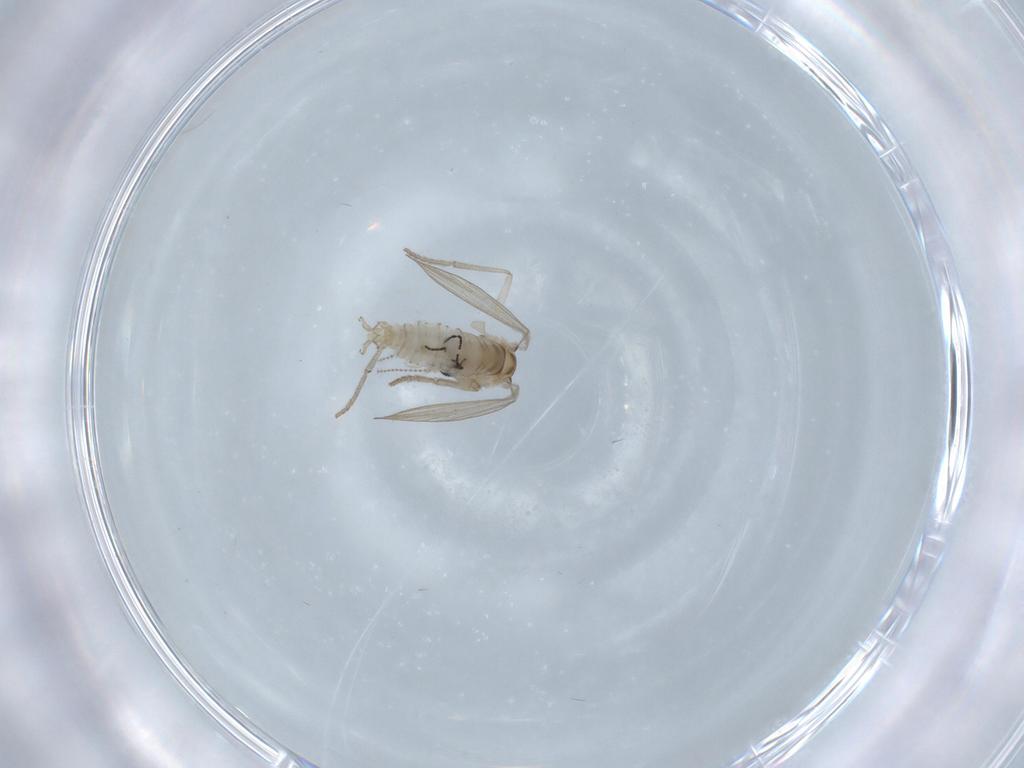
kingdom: Animalia
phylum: Arthropoda
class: Insecta
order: Diptera
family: Psychodidae
